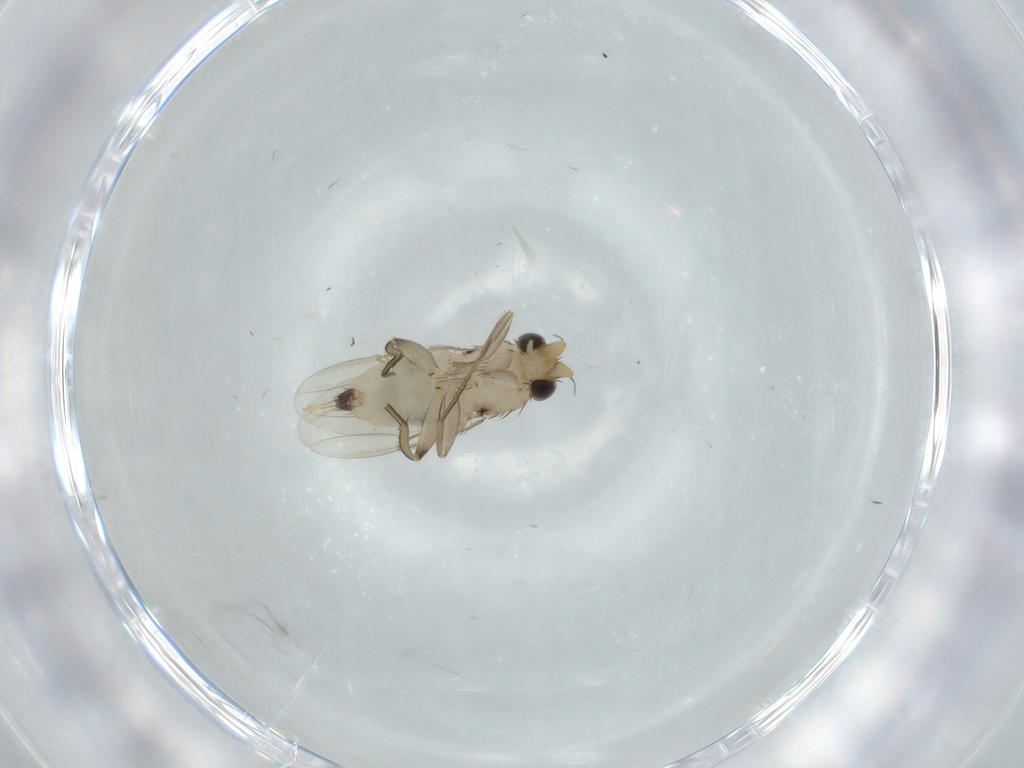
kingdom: Animalia
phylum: Arthropoda
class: Insecta
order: Diptera
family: Phoridae
